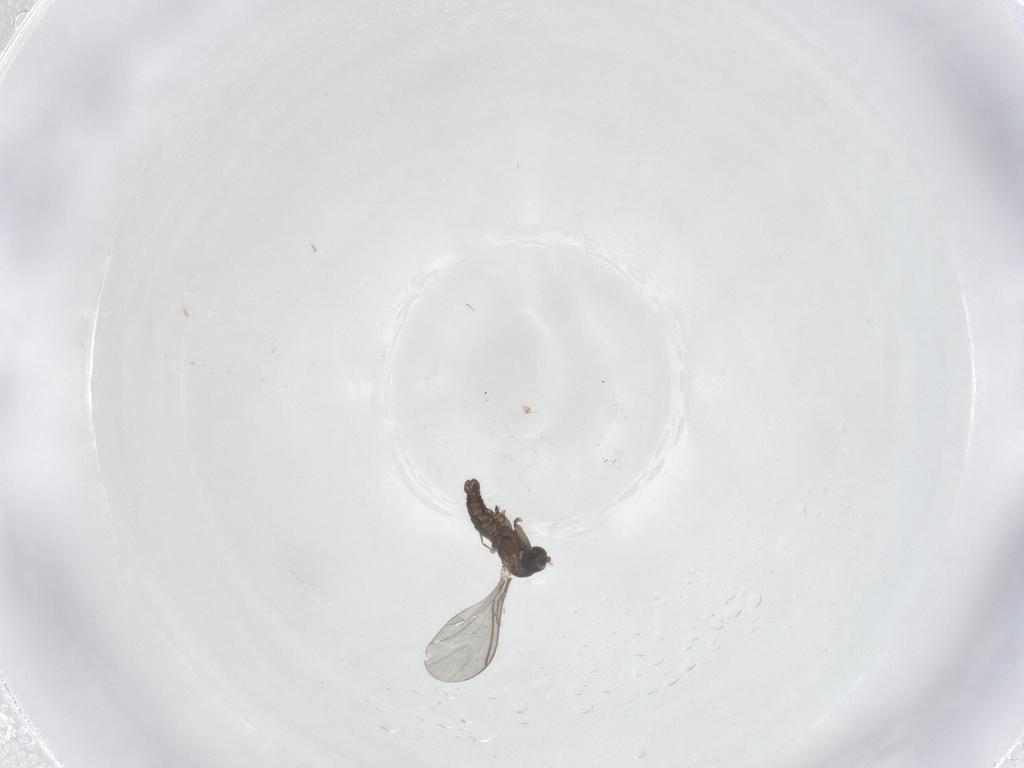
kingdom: Animalia
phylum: Arthropoda
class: Insecta
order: Diptera
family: Sciaridae
